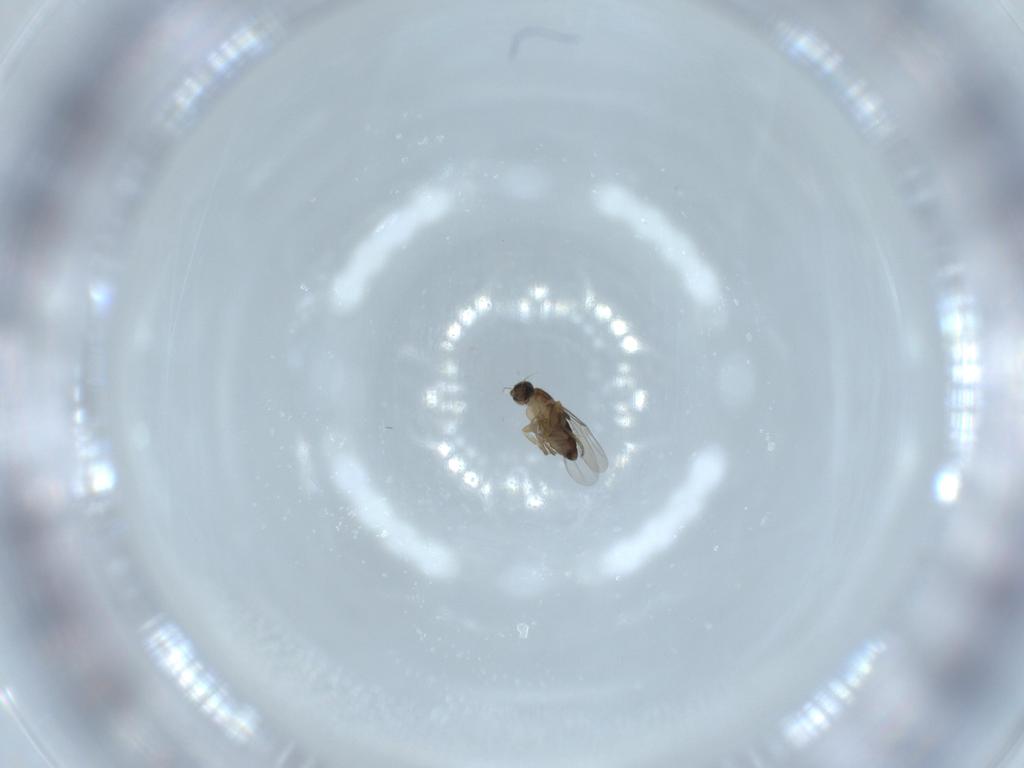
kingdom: Animalia
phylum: Arthropoda
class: Insecta
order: Diptera
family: Phoridae
